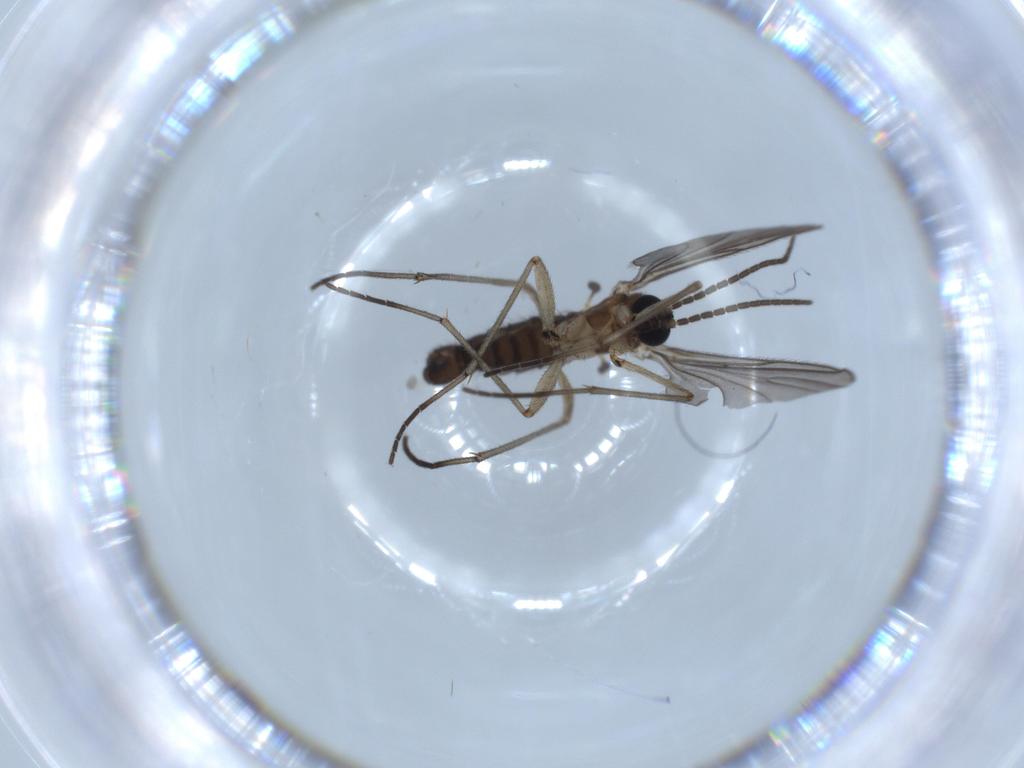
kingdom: Animalia
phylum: Arthropoda
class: Insecta
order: Diptera
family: Sciaridae
